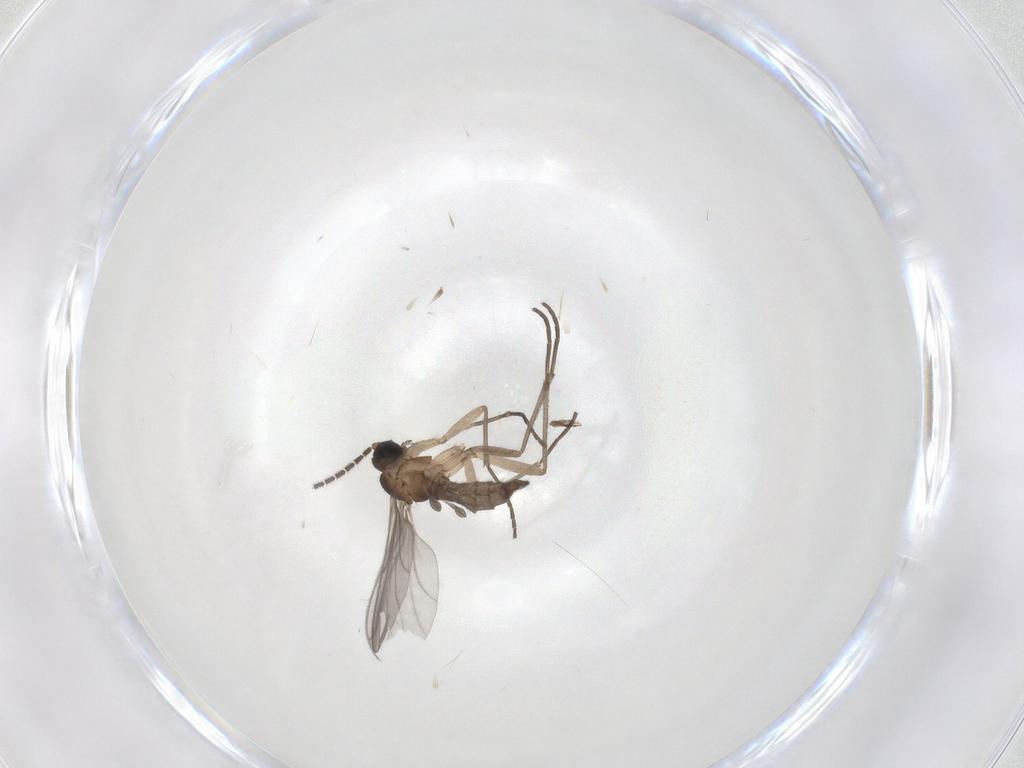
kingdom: Animalia
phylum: Arthropoda
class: Insecta
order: Diptera
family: Sciaridae
